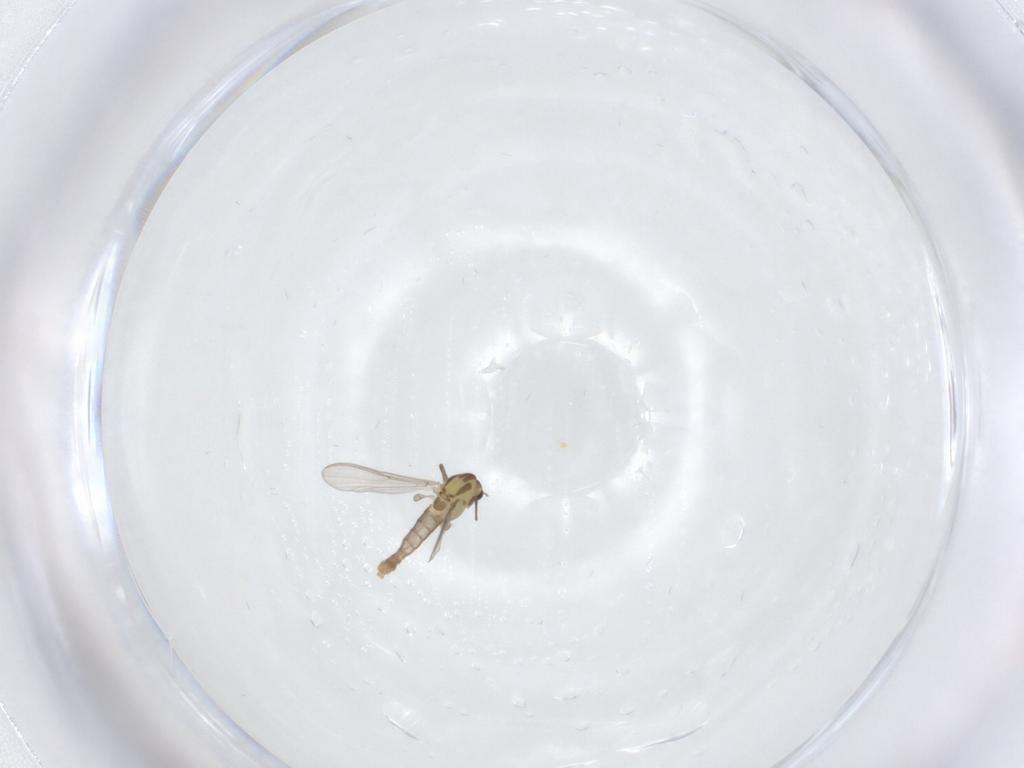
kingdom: Animalia
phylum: Arthropoda
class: Insecta
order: Diptera
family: Chironomidae
